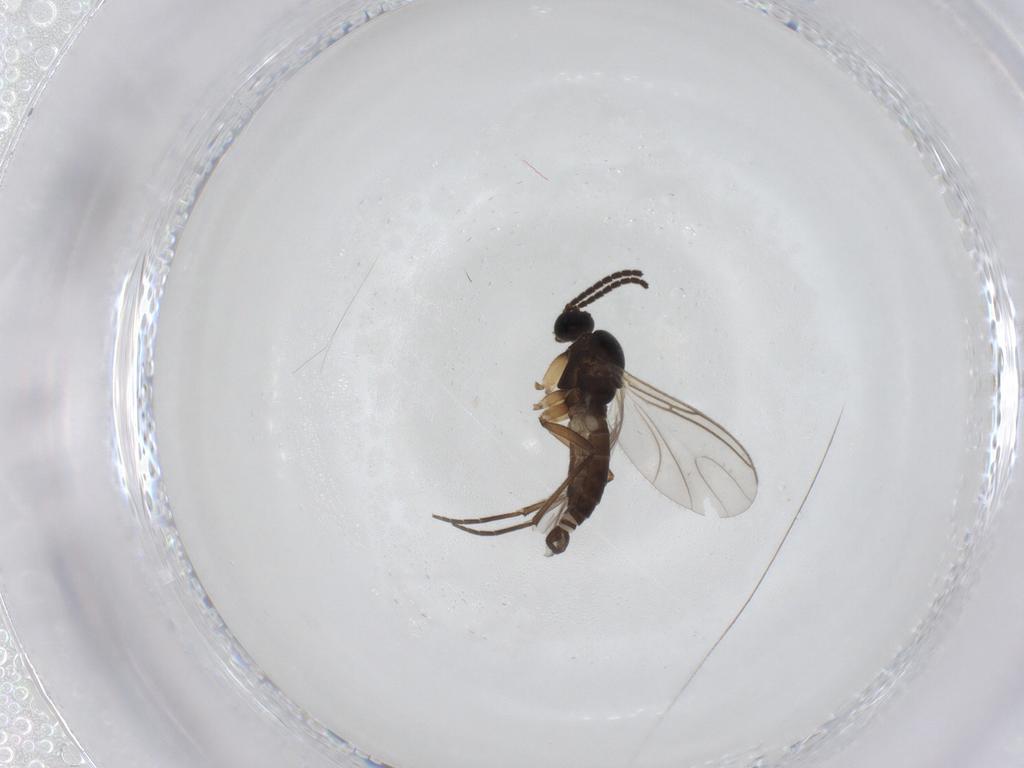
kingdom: Animalia
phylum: Arthropoda
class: Insecta
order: Diptera
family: Sciaridae
